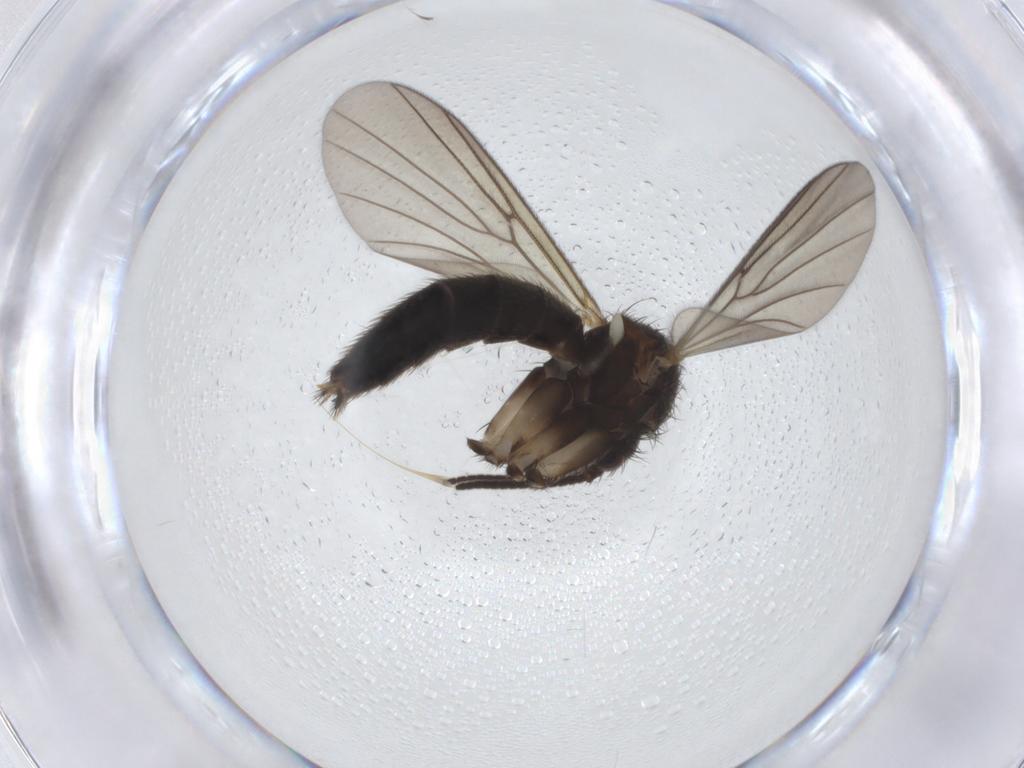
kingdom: Animalia
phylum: Arthropoda
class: Insecta
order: Diptera
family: Mycetophilidae
